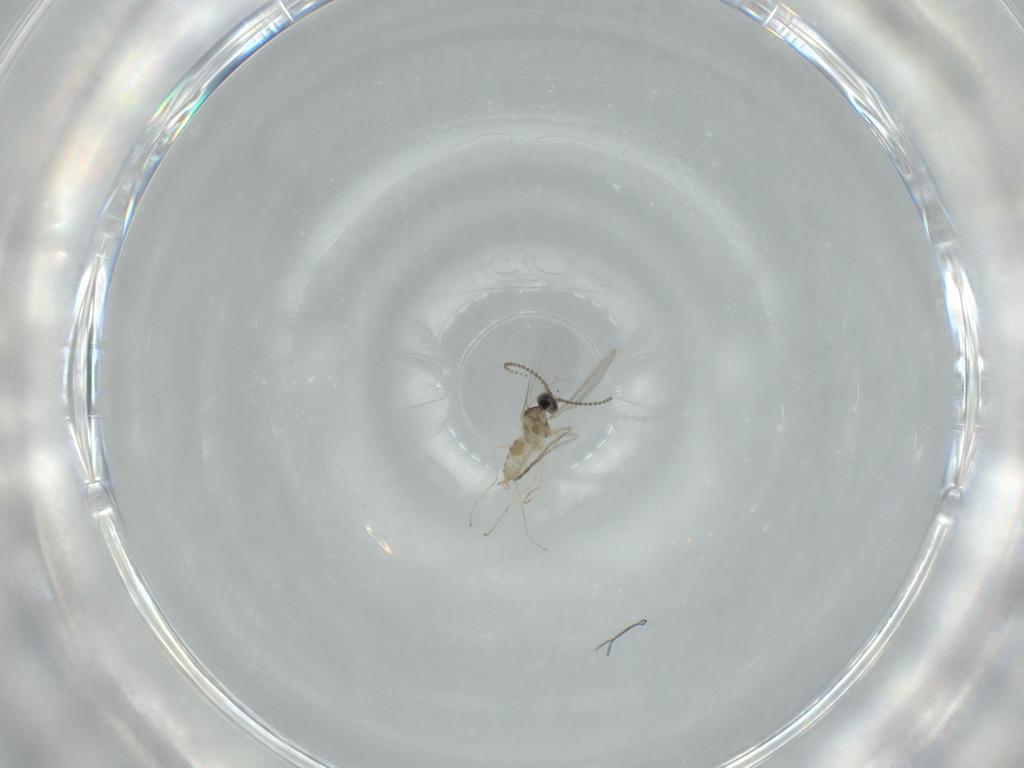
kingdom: Animalia
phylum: Arthropoda
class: Insecta
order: Diptera
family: Cecidomyiidae
